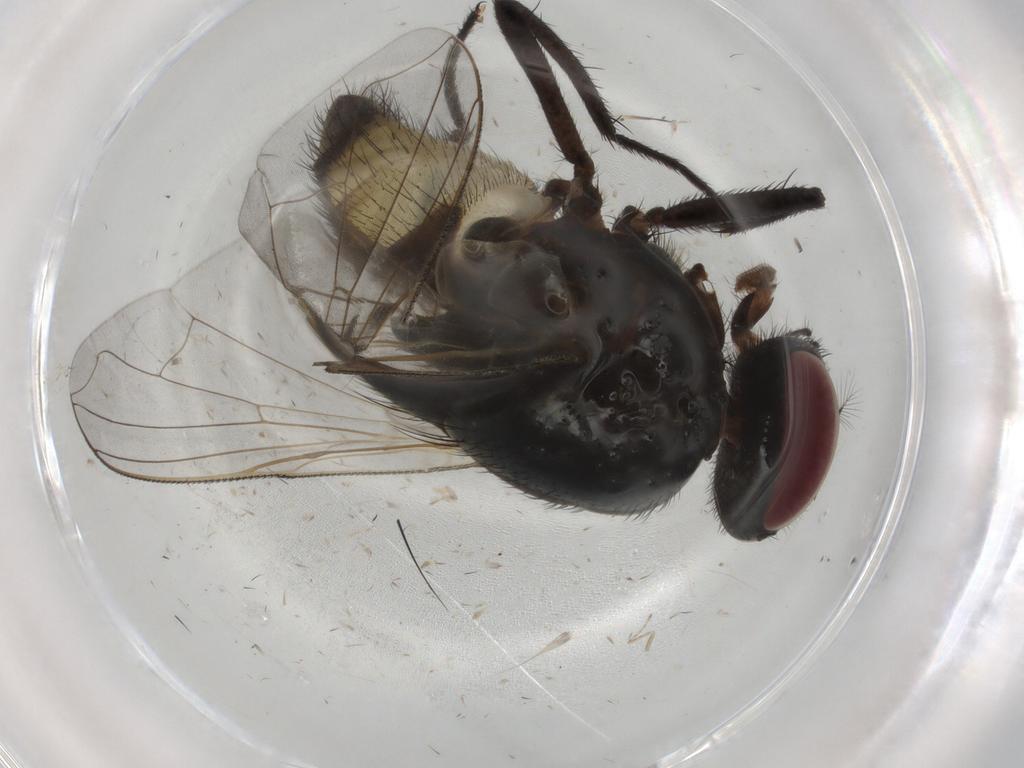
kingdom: Animalia
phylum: Arthropoda
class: Insecta
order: Diptera
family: Muscidae
